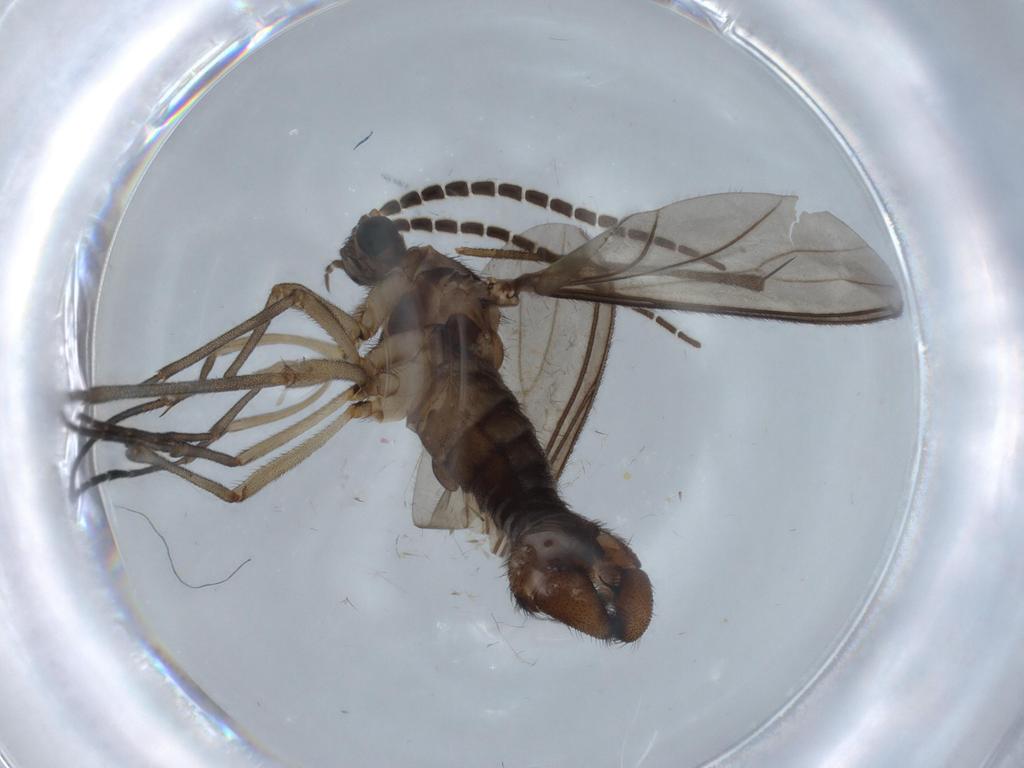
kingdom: Animalia
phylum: Arthropoda
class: Insecta
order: Diptera
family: Sciaridae
